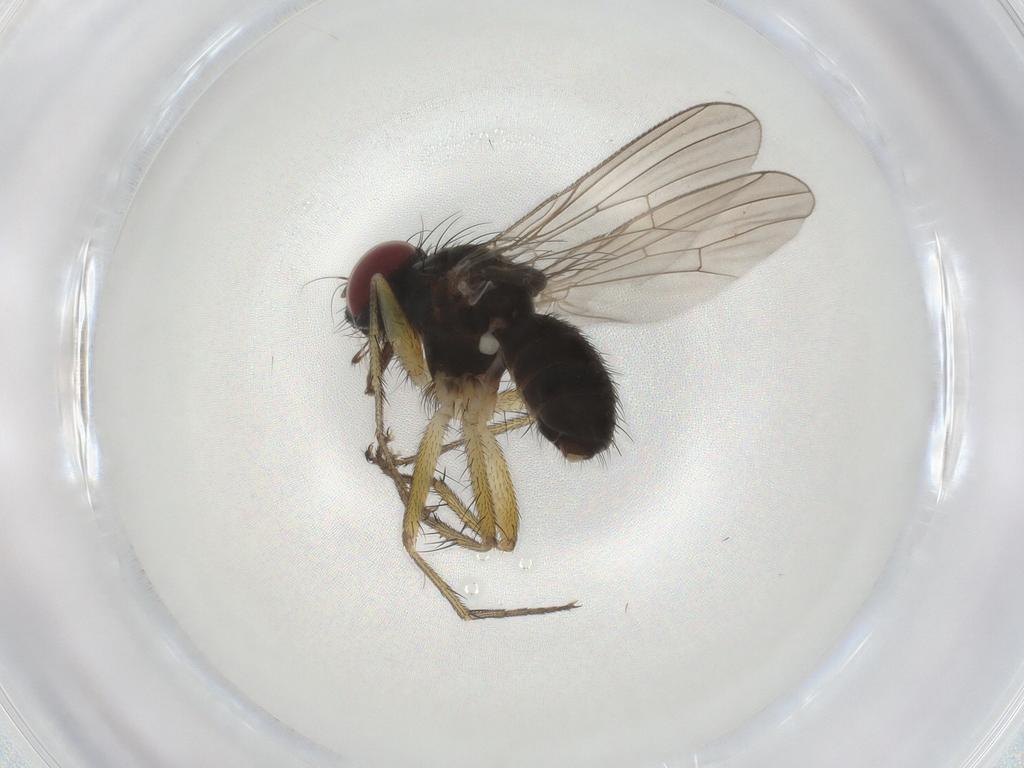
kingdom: Animalia
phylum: Arthropoda
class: Insecta
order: Diptera
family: Muscidae
